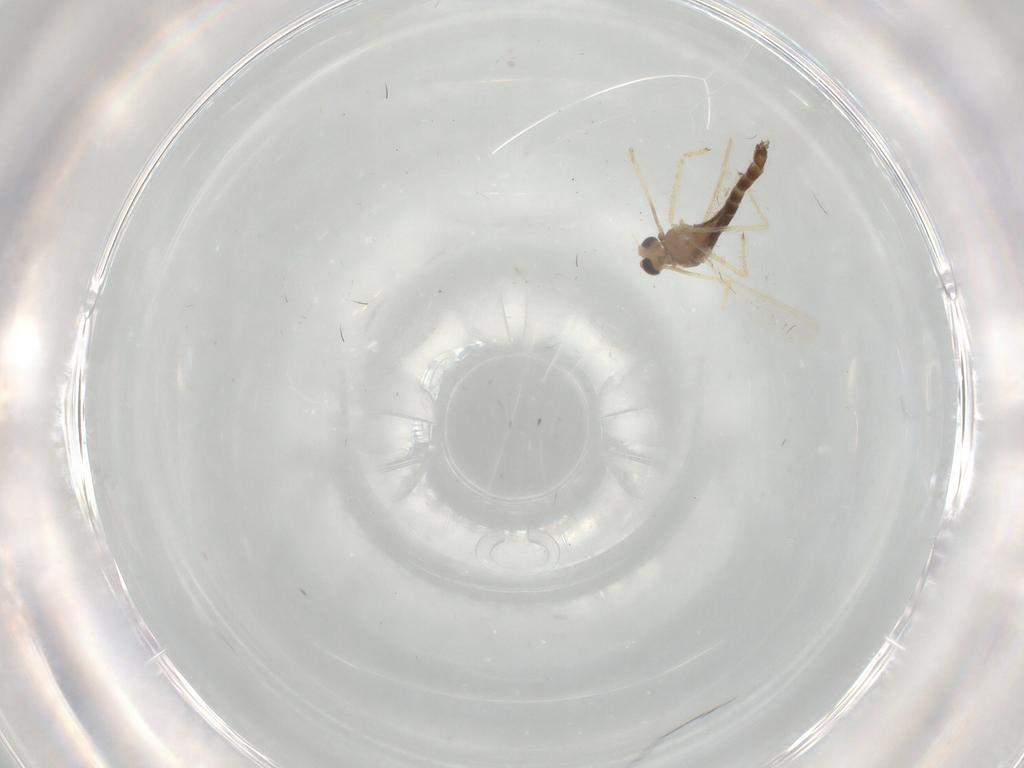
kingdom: Animalia
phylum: Arthropoda
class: Insecta
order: Diptera
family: Chironomidae
